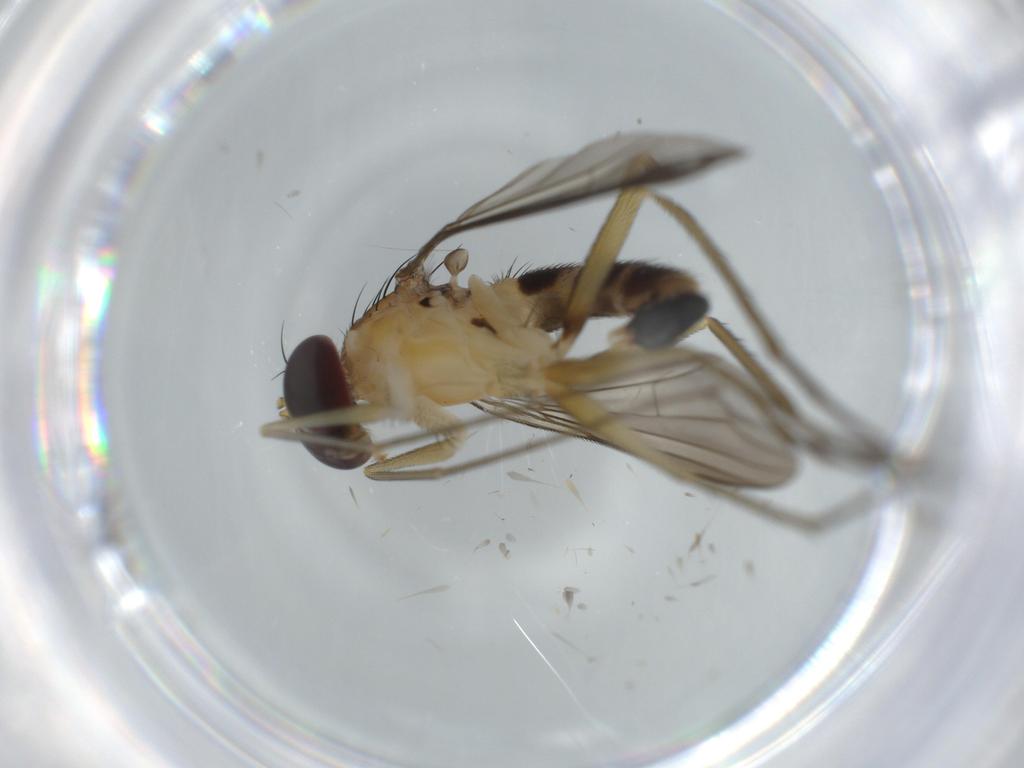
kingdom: Animalia
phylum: Arthropoda
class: Insecta
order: Diptera
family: Dolichopodidae
